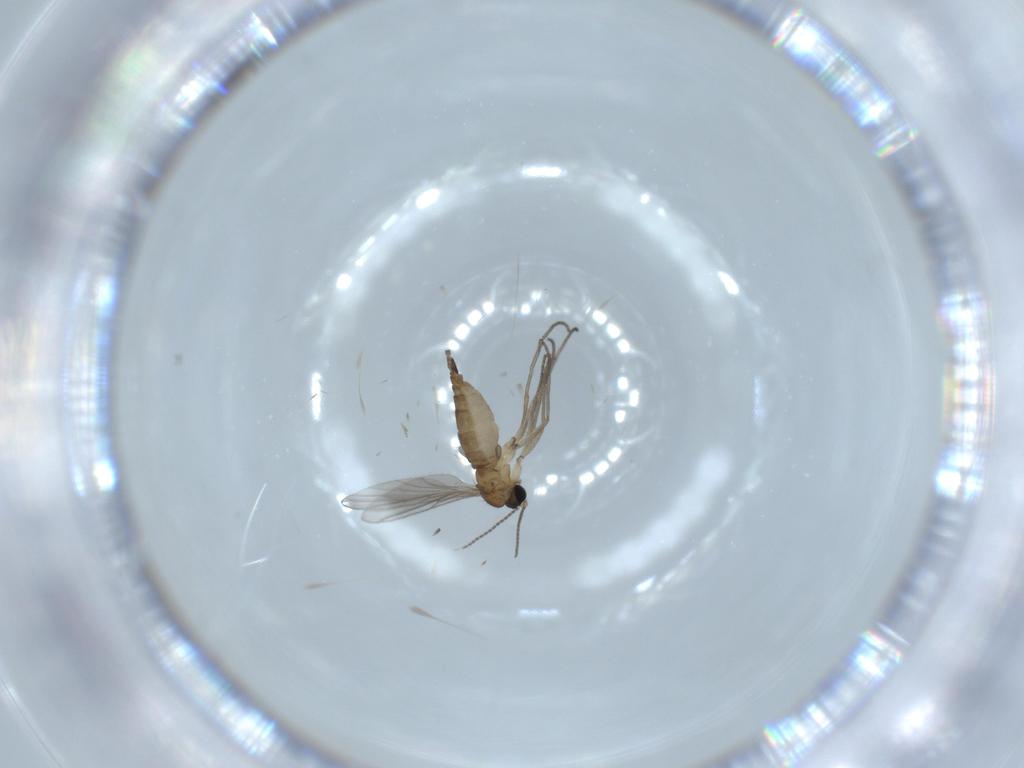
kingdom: Animalia
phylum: Arthropoda
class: Insecta
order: Diptera
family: Sciaridae
